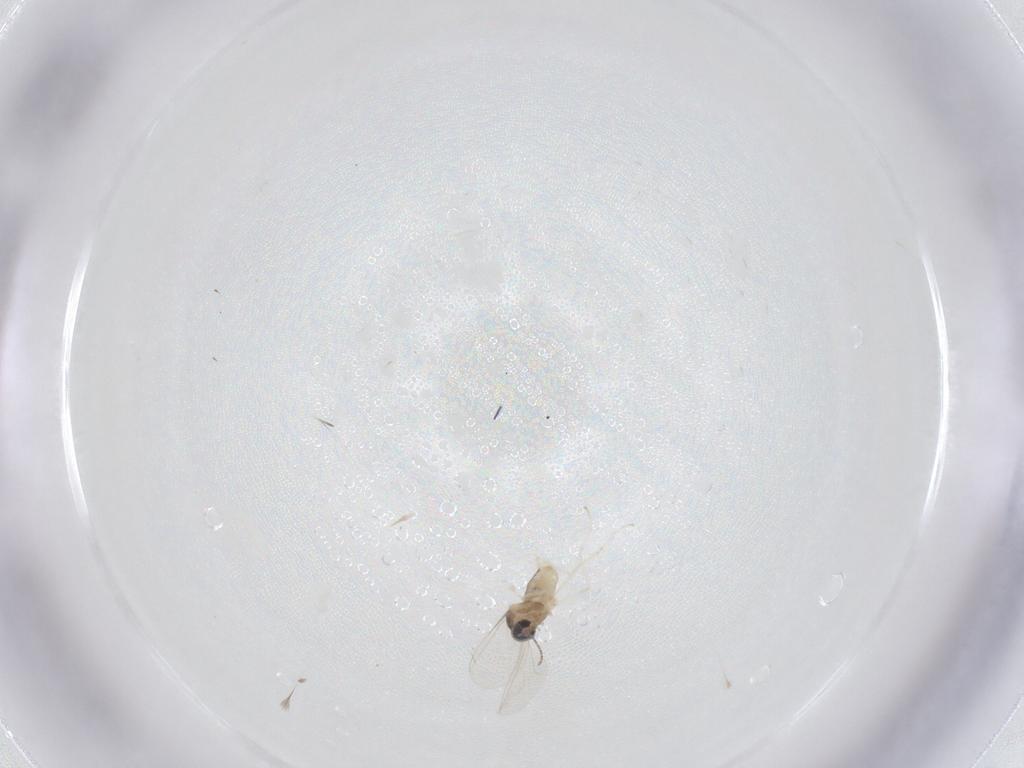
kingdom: Animalia
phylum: Arthropoda
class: Insecta
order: Diptera
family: Cecidomyiidae
